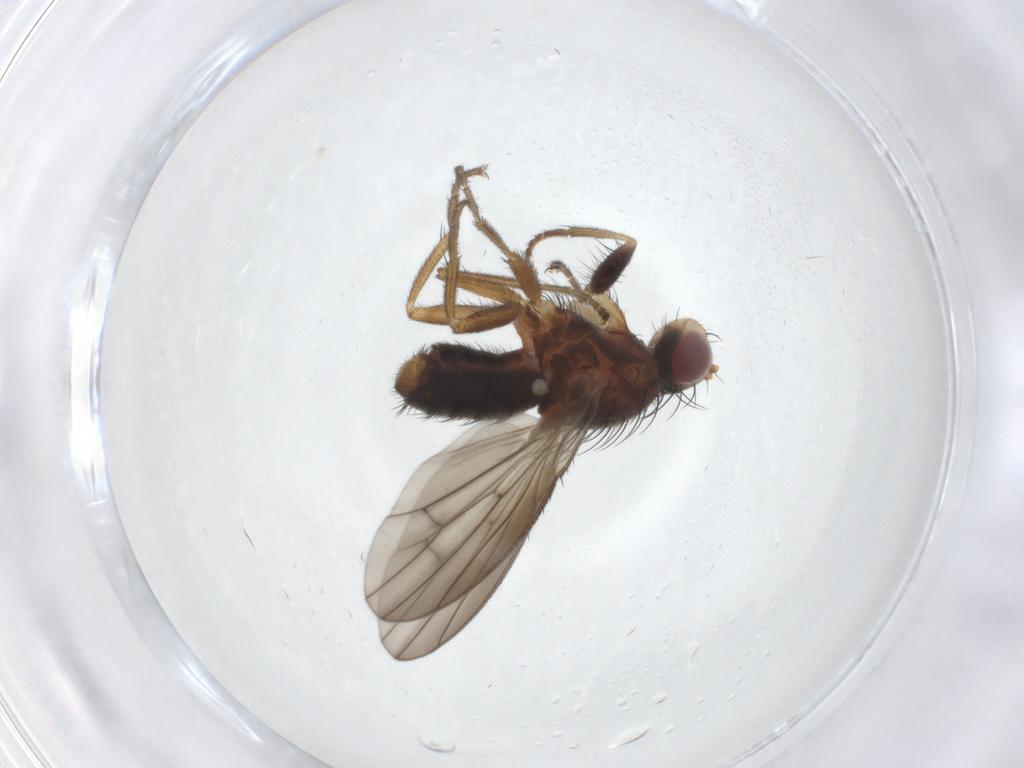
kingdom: Animalia
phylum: Arthropoda
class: Insecta
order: Diptera
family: Heleomyzidae
